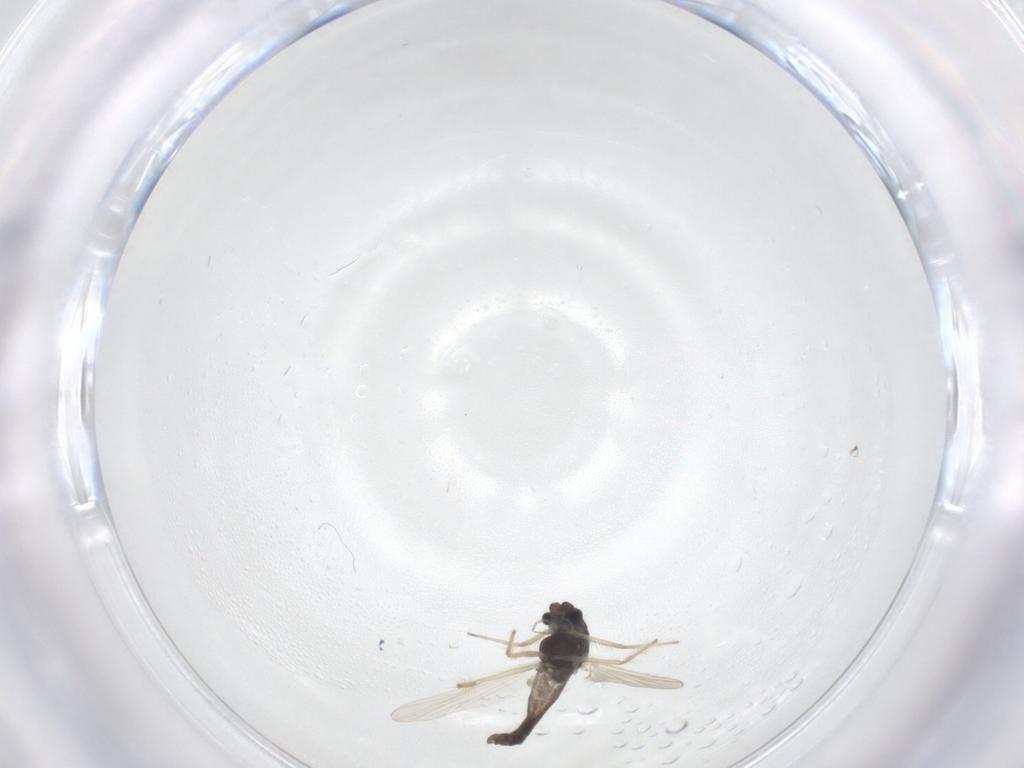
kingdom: Animalia
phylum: Arthropoda
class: Insecta
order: Diptera
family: Chironomidae
